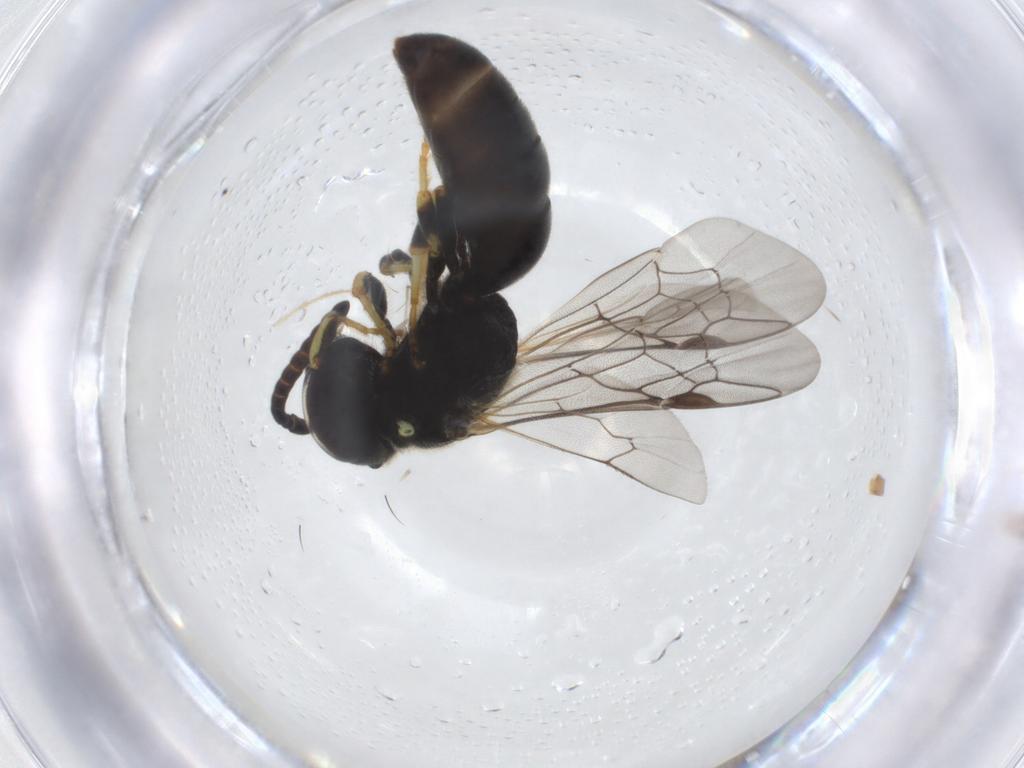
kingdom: Animalia
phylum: Arthropoda
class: Insecta
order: Hymenoptera
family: Colletidae
